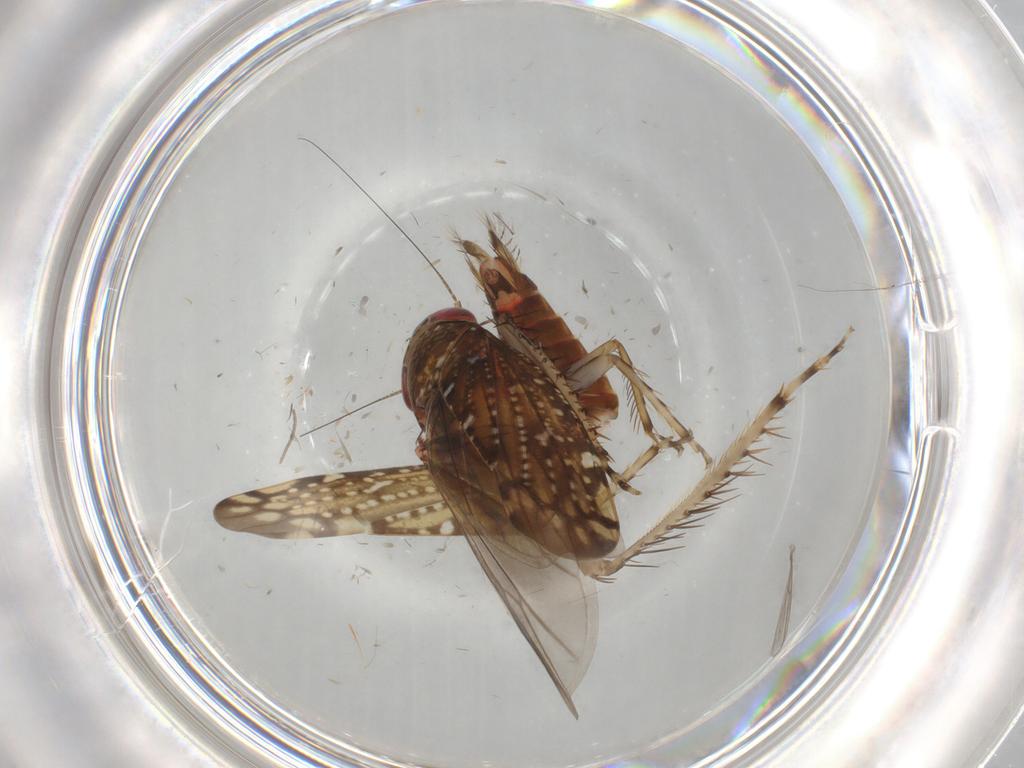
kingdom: Animalia
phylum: Arthropoda
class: Insecta
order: Hemiptera
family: Cicadellidae
